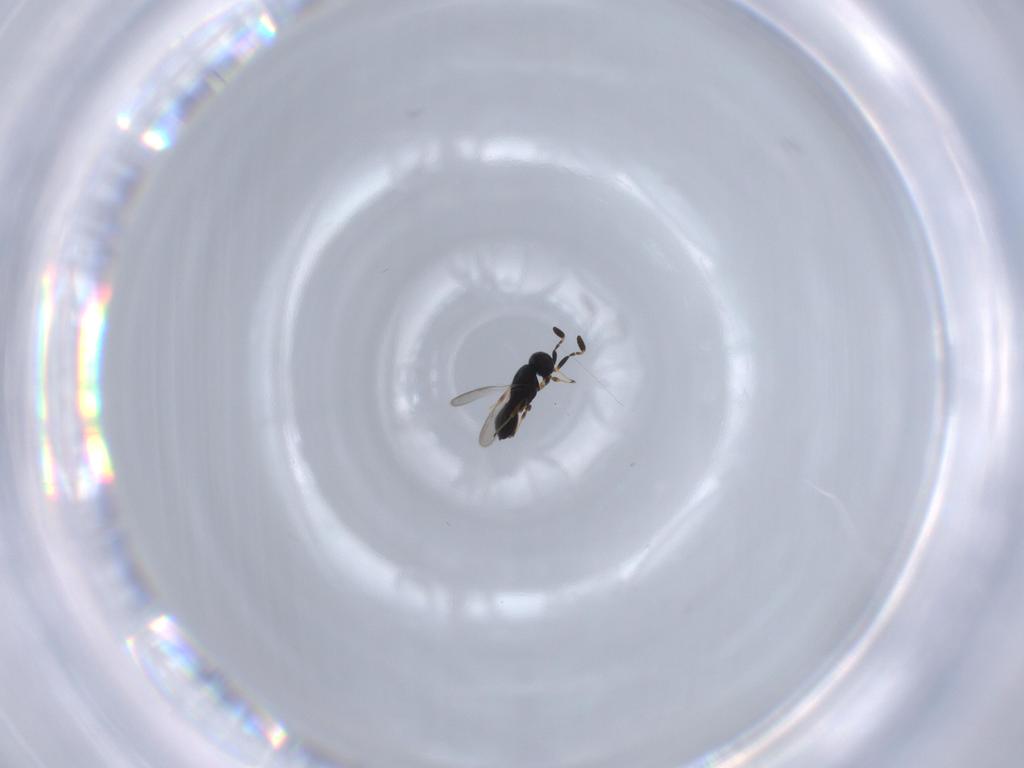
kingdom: Animalia
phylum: Arthropoda
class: Insecta
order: Hymenoptera
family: Scelionidae
